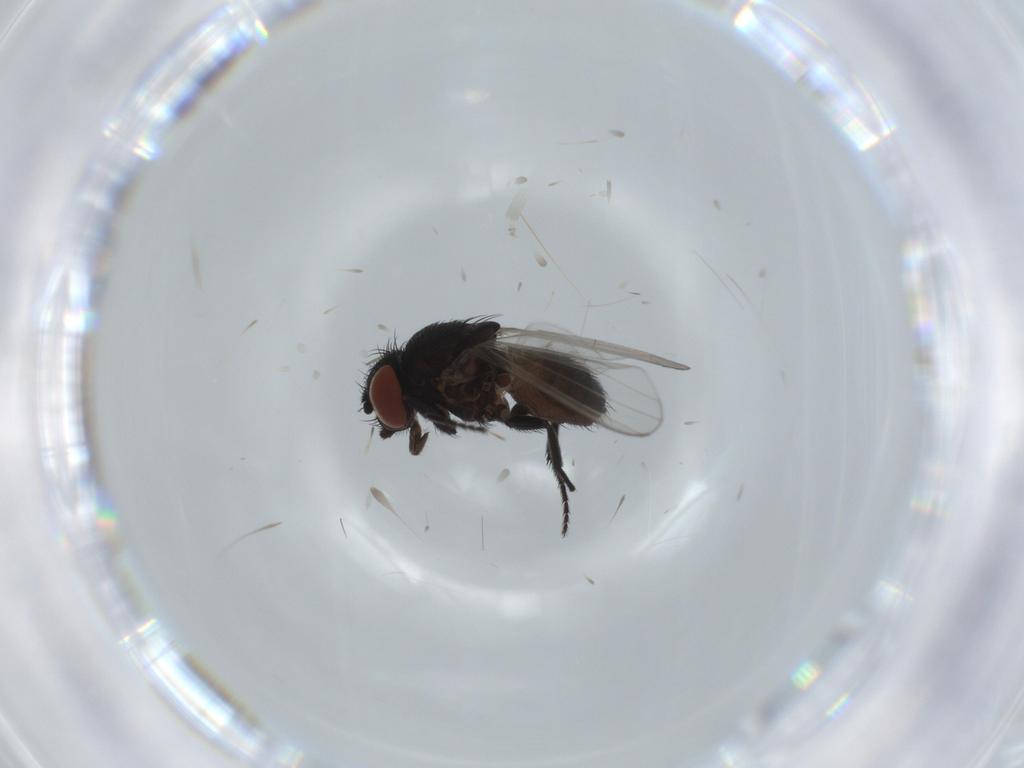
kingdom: Animalia
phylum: Arthropoda
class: Insecta
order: Diptera
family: Milichiidae
